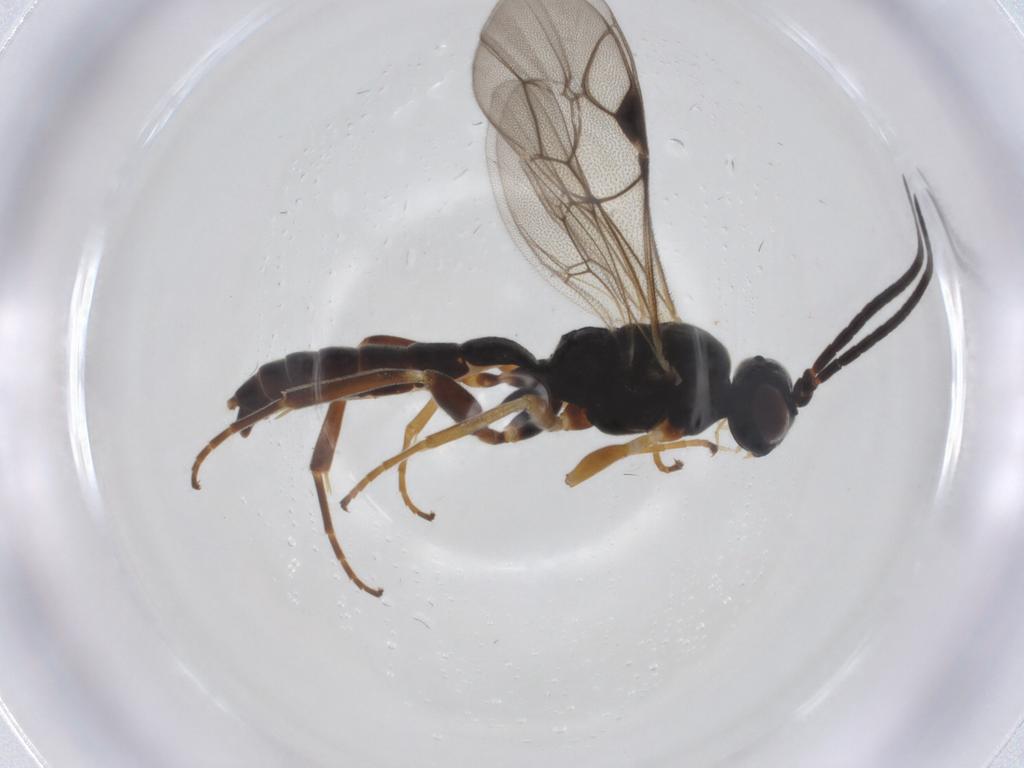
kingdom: Animalia
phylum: Arthropoda
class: Insecta
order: Hymenoptera
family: Ichneumonidae
